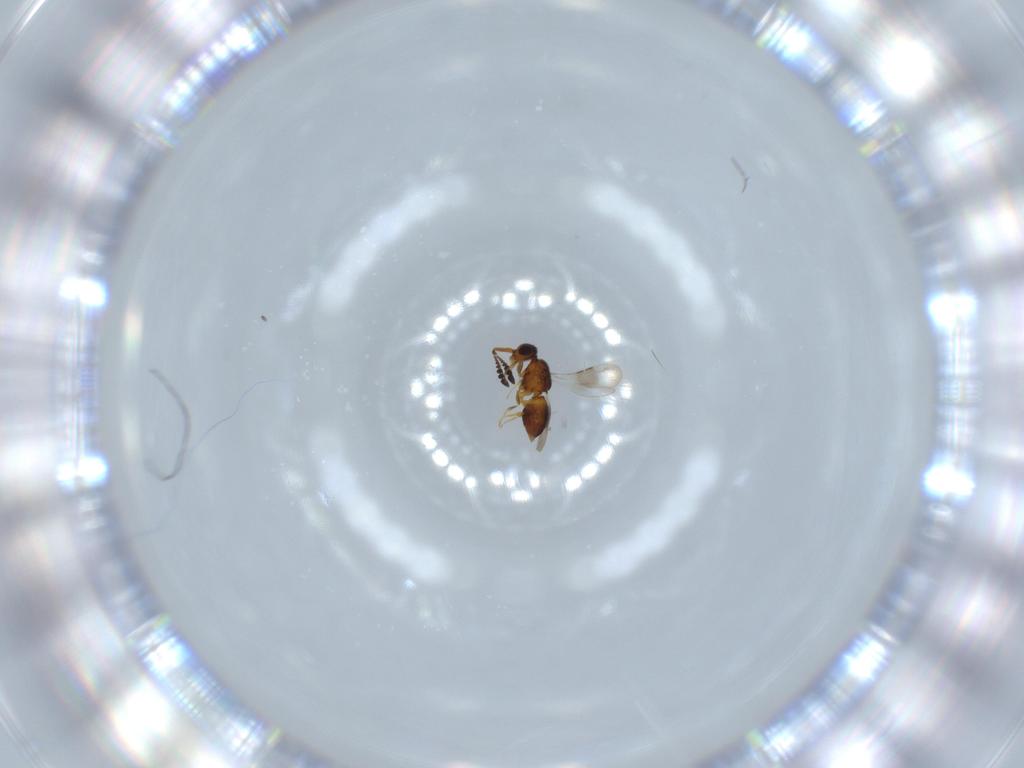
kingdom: Animalia
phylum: Arthropoda
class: Insecta
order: Hymenoptera
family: Ceraphronidae
